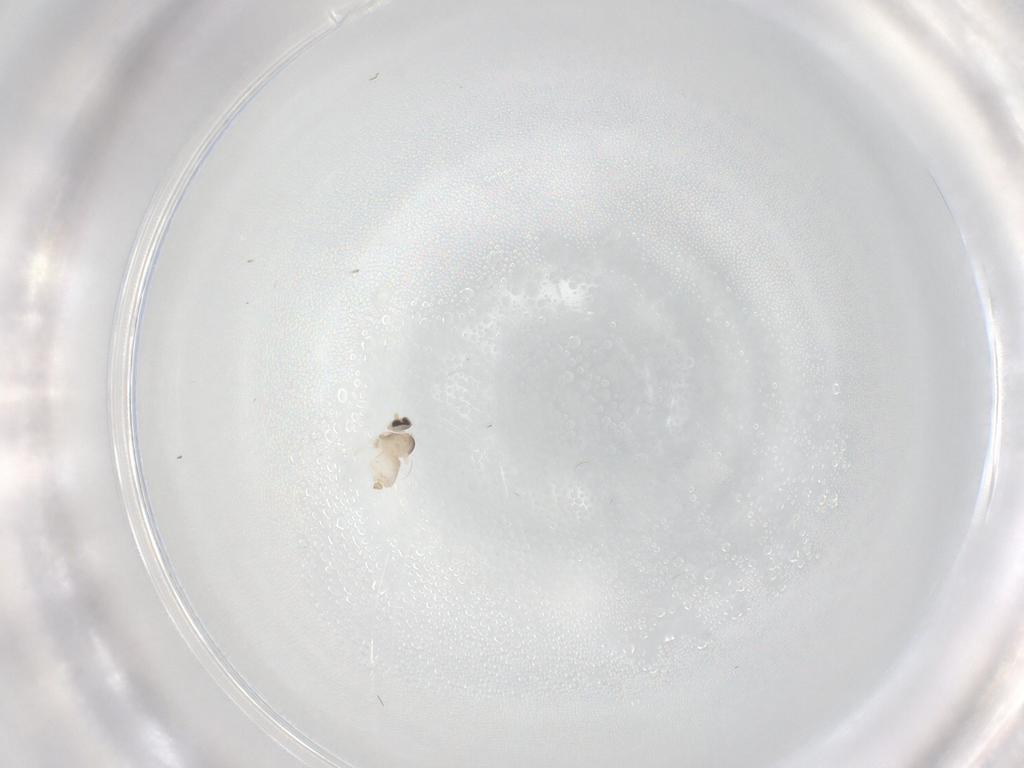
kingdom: Animalia
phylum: Arthropoda
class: Insecta
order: Diptera
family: Cecidomyiidae
